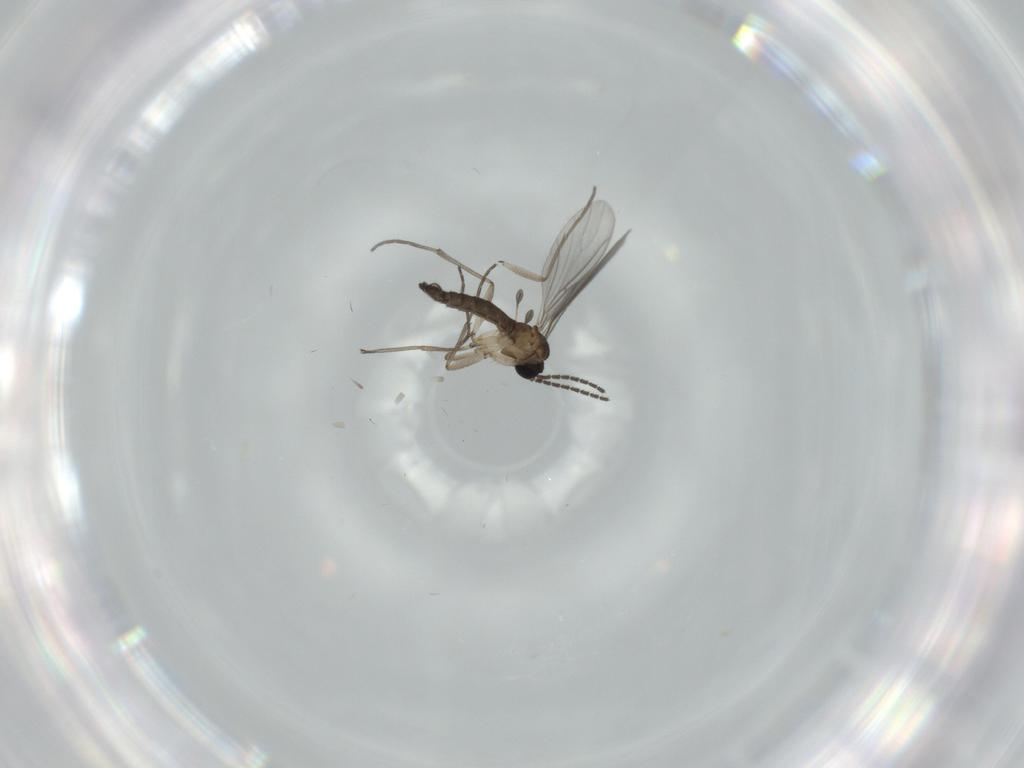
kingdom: Animalia
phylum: Arthropoda
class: Insecta
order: Diptera
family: Sciaridae
